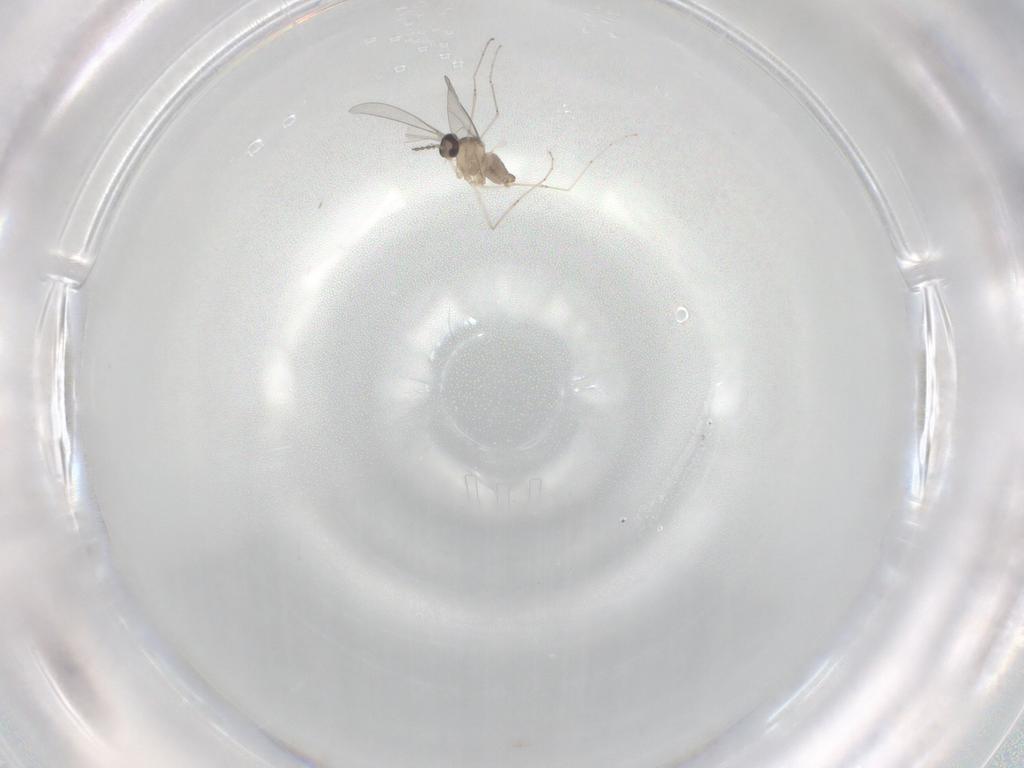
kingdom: Animalia
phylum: Arthropoda
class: Insecta
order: Diptera
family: Cecidomyiidae
